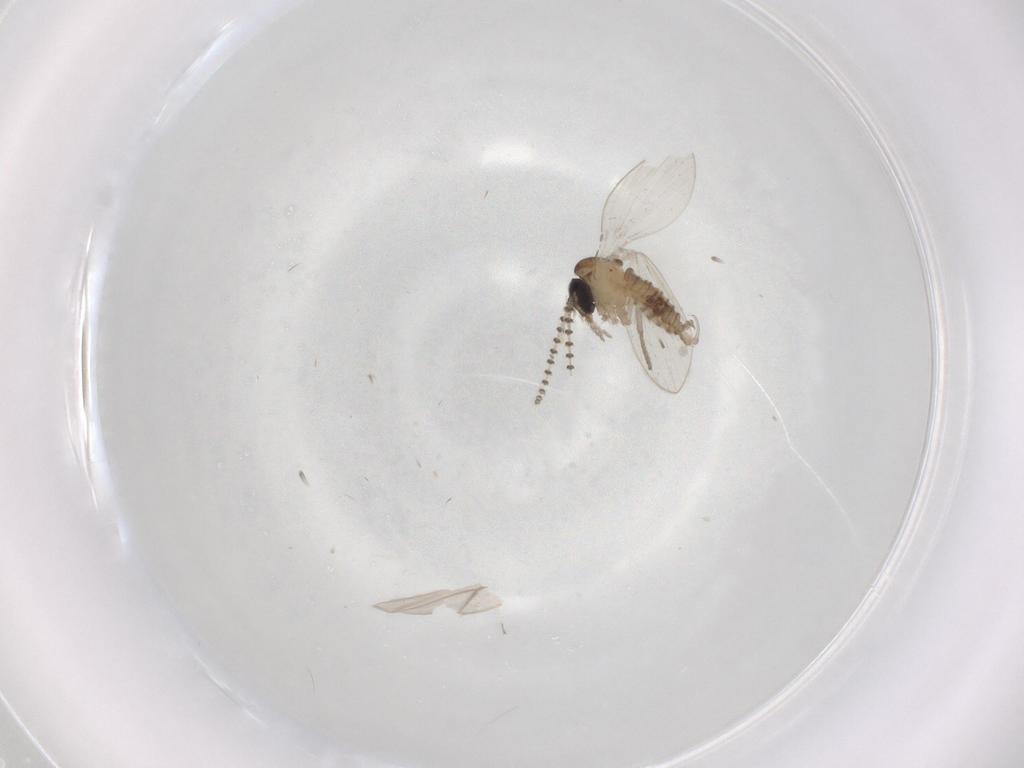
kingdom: Animalia
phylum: Arthropoda
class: Insecta
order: Diptera
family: Psychodidae
